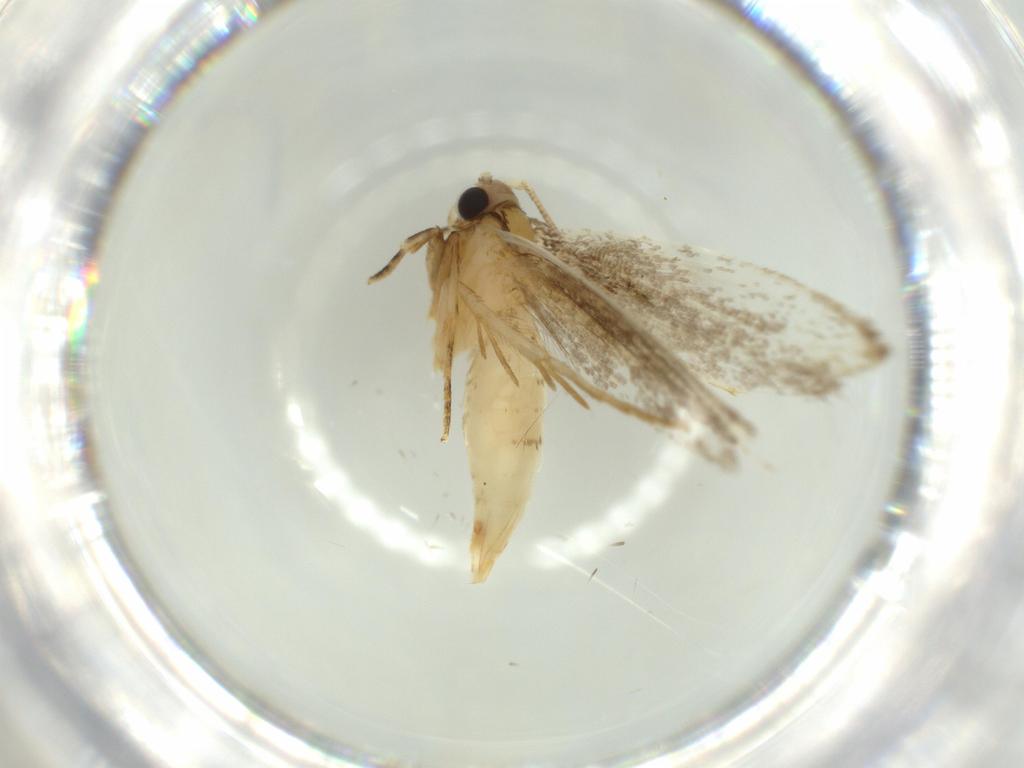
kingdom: Animalia
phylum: Arthropoda
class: Insecta
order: Lepidoptera
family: Tineidae
